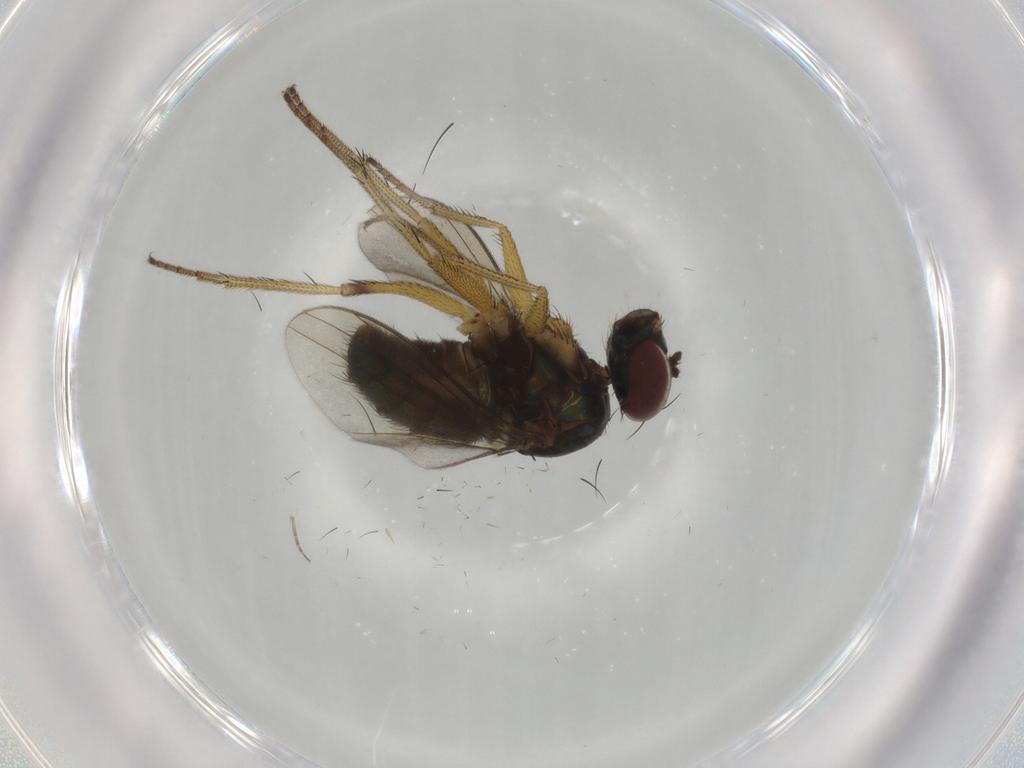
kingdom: Animalia
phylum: Arthropoda
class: Insecta
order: Diptera
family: Dolichopodidae
